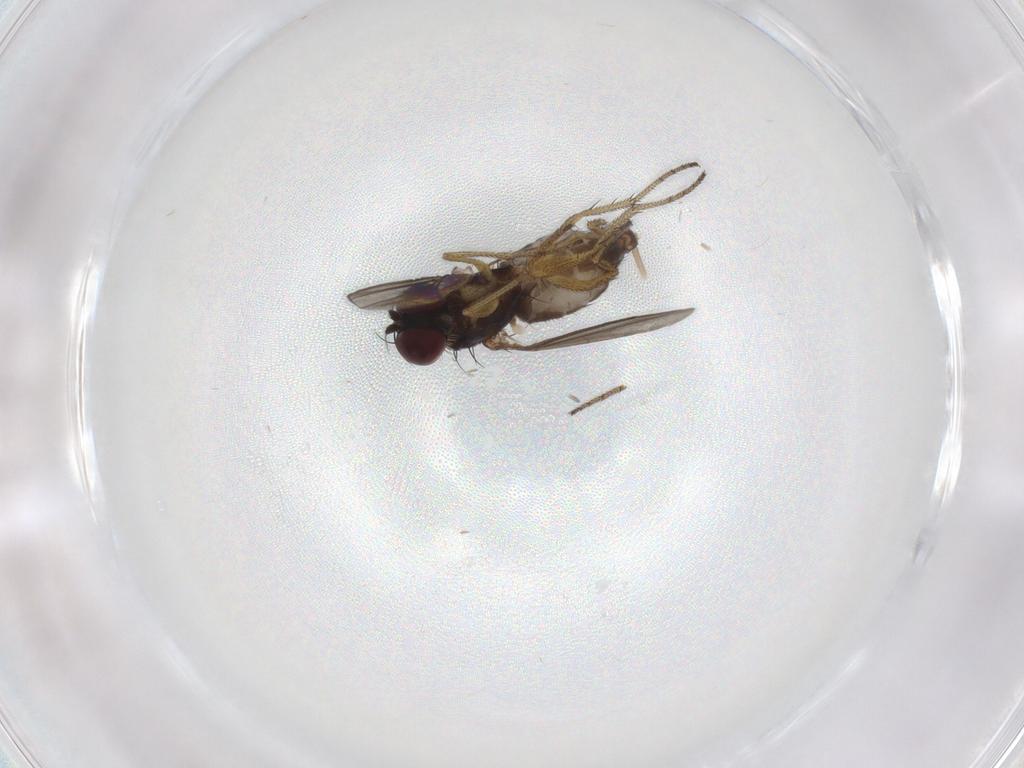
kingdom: Animalia
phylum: Arthropoda
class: Insecta
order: Diptera
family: Chironomidae
